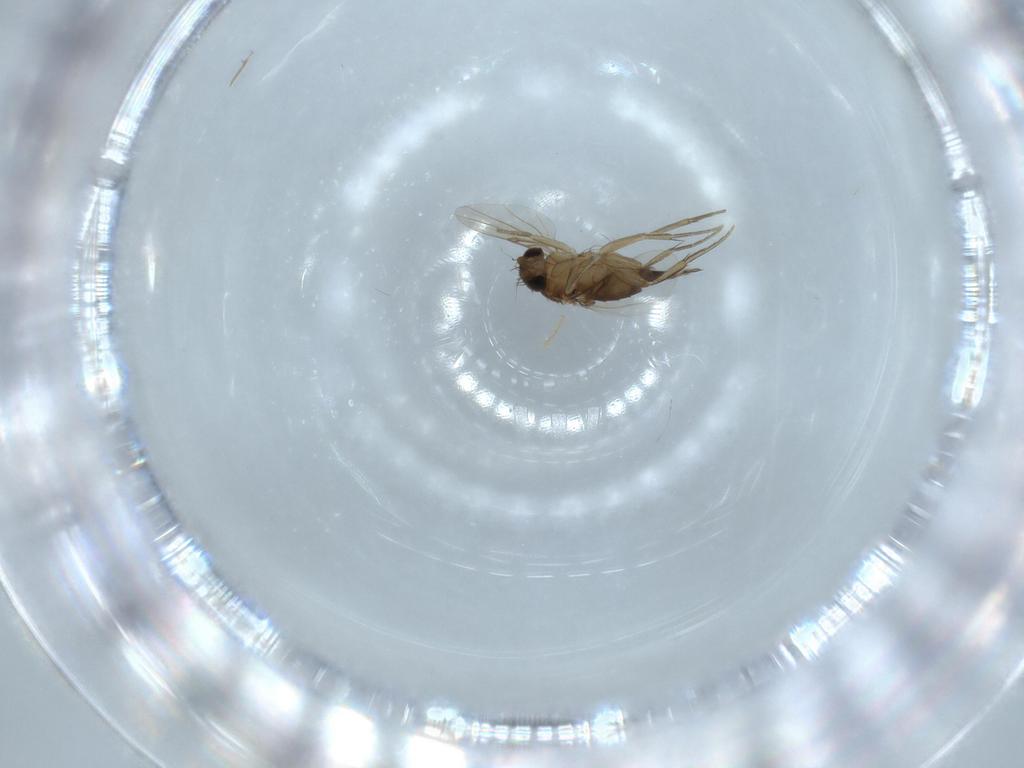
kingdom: Animalia
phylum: Arthropoda
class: Insecta
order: Diptera
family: Phoridae
